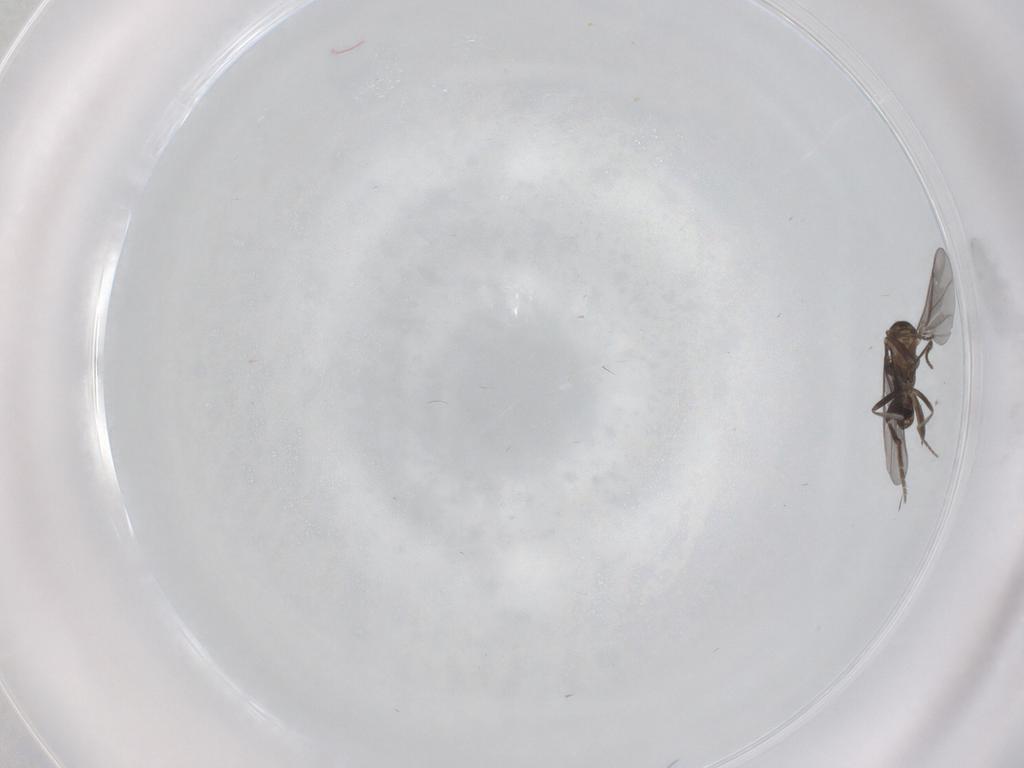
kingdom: Animalia
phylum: Arthropoda
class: Insecta
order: Diptera
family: Phoridae
